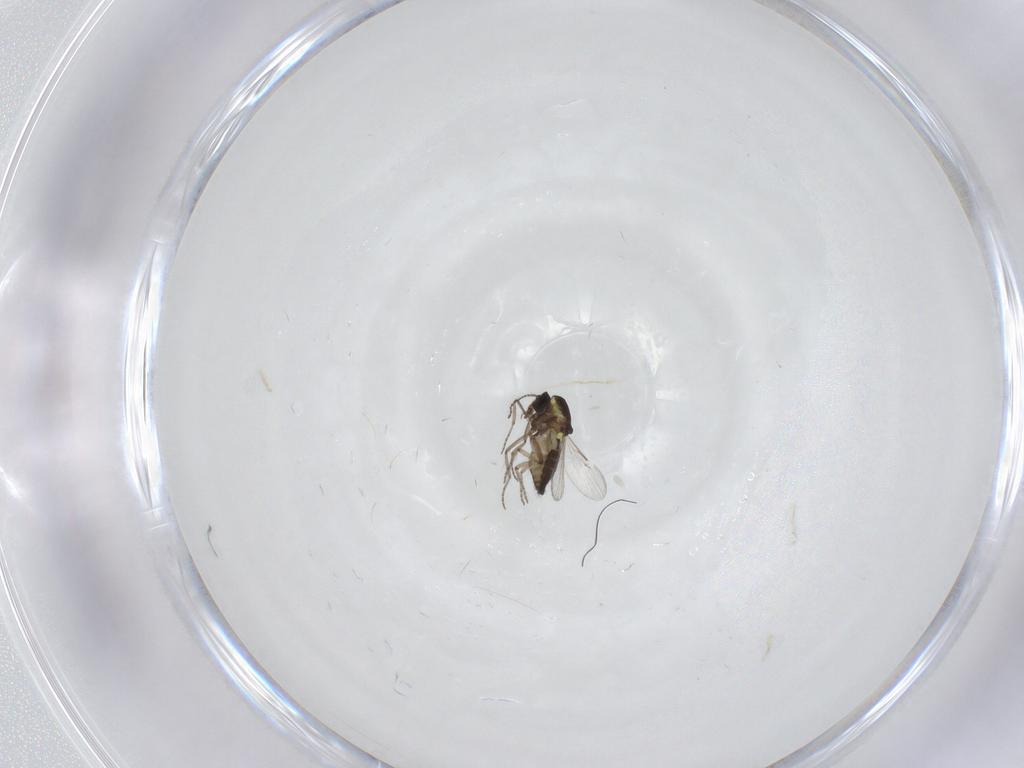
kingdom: Animalia
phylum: Arthropoda
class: Insecta
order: Diptera
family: Ceratopogonidae
